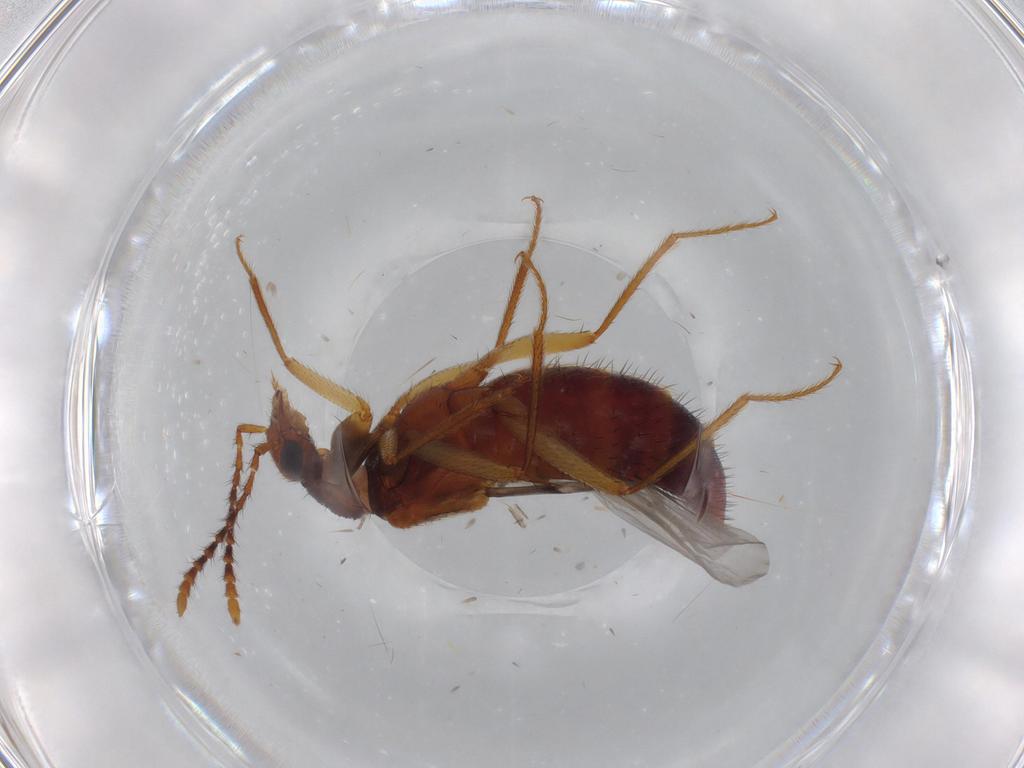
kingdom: Animalia
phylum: Arthropoda
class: Insecta
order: Coleoptera
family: Staphylinidae
